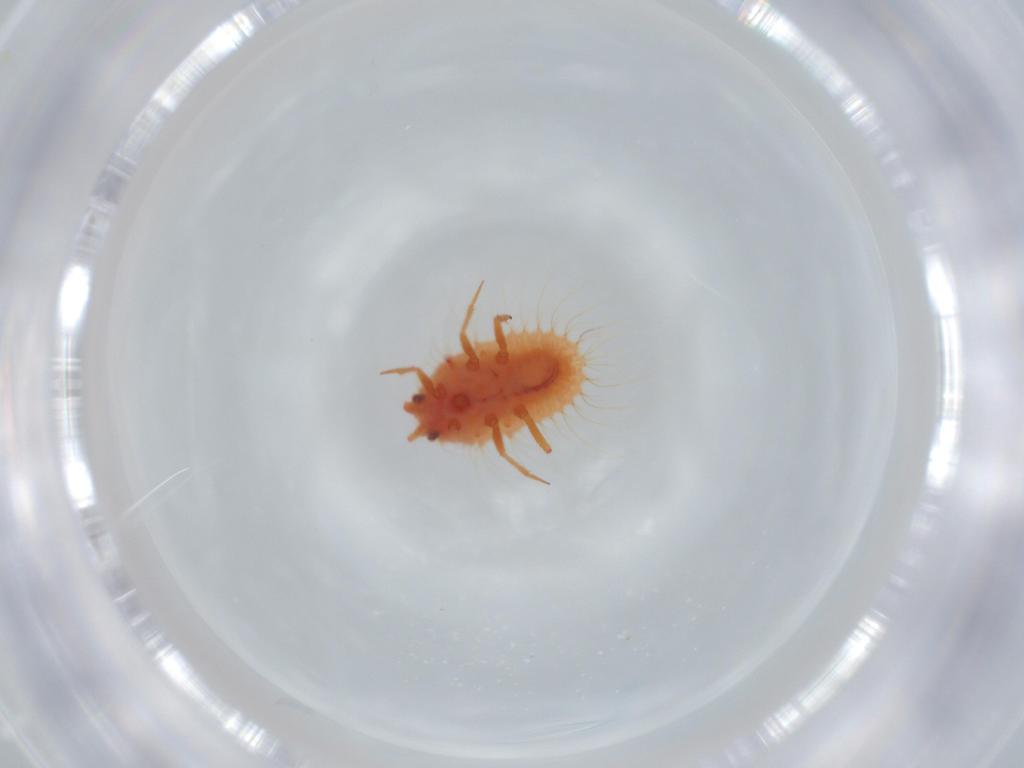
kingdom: Animalia
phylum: Arthropoda
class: Insecta
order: Hemiptera
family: Coccoidea_incertae_sedis
